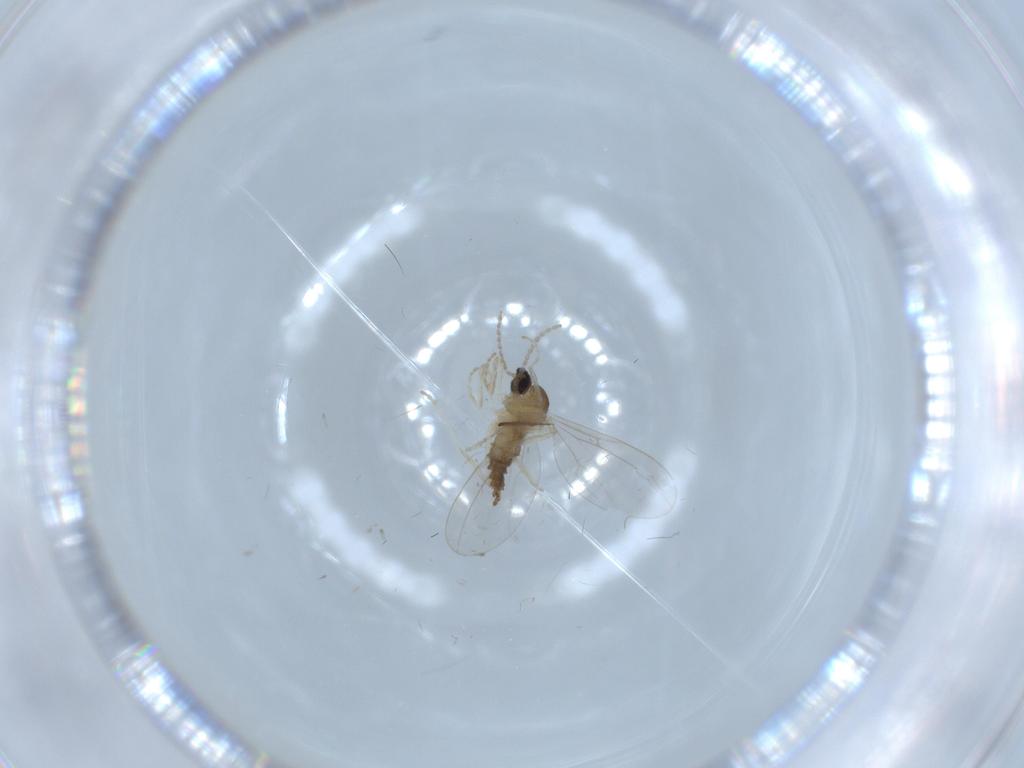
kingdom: Animalia
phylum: Arthropoda
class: Insecta
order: Diptera
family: Cecidomyiidae
